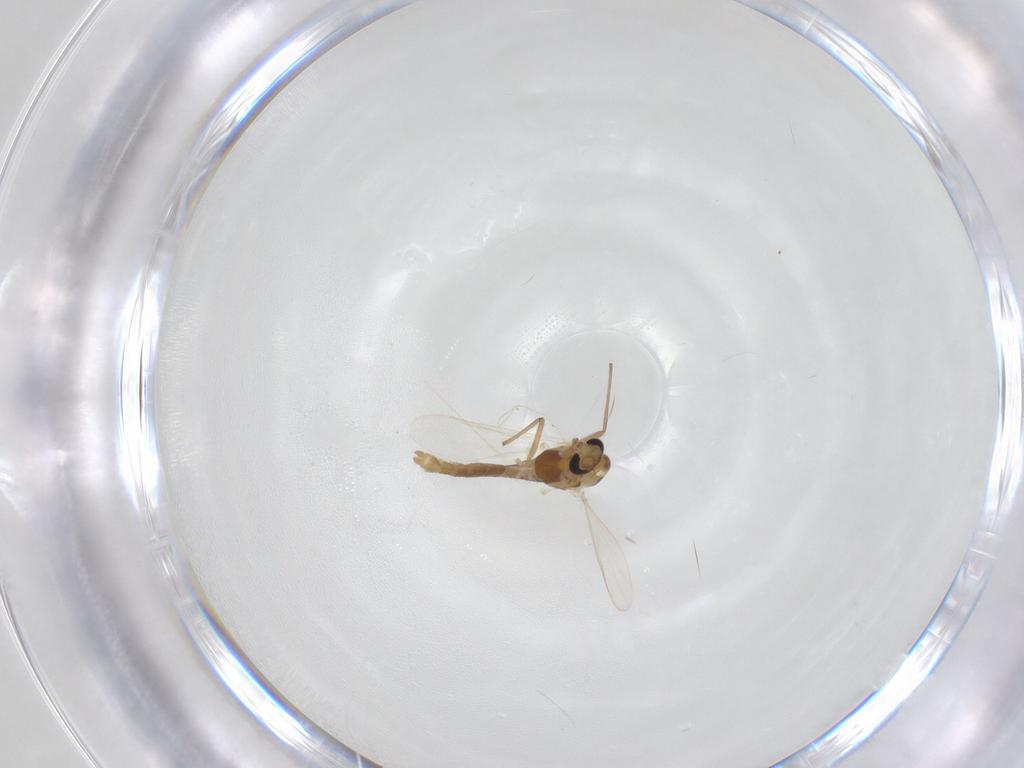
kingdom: Animalia
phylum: Arthropoda
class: Insecta
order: Diptera
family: Chironomidae
